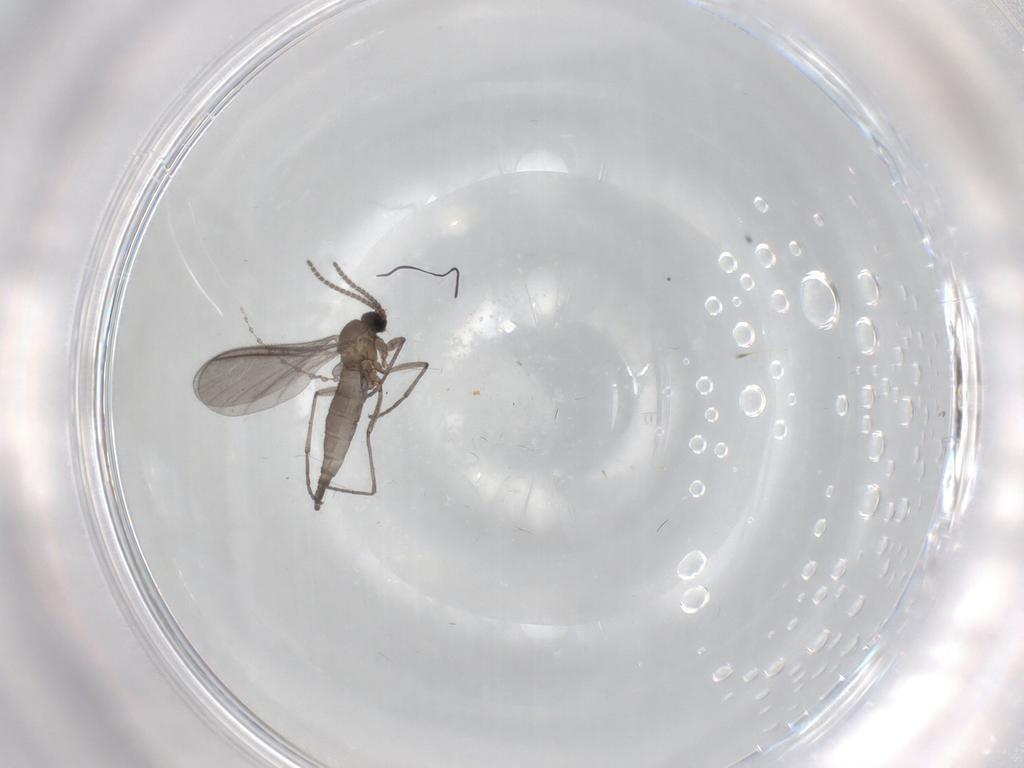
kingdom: Animalia
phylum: Arthropoda
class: Insecta
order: Diptera
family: Sciaridae
